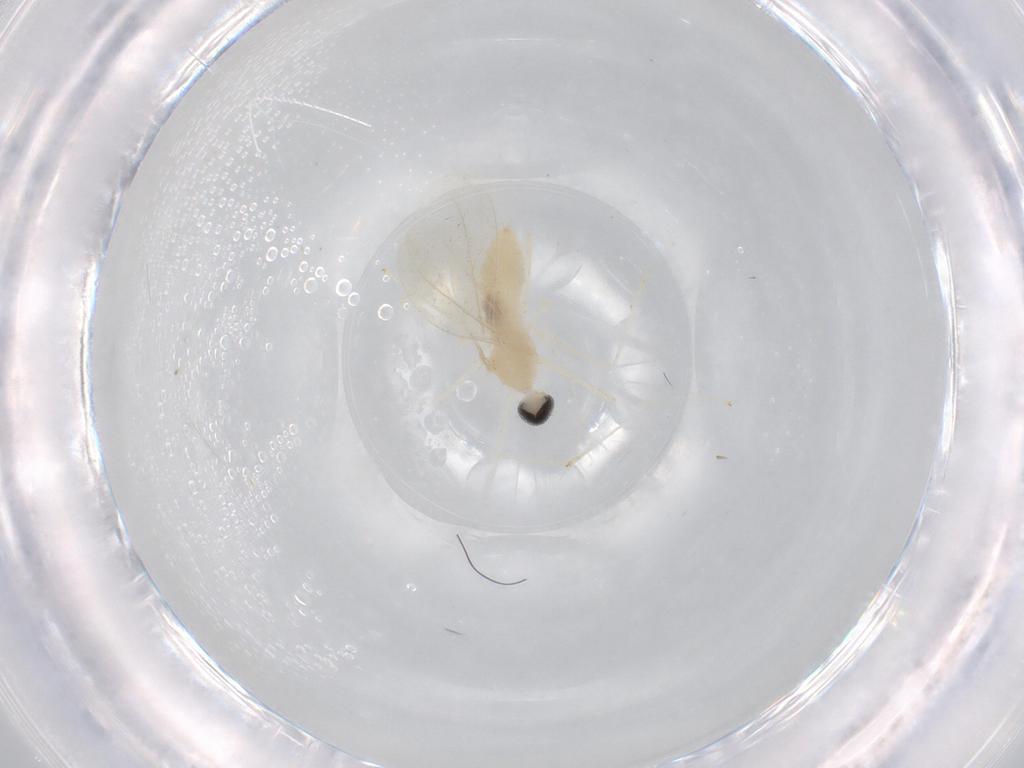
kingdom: Animalia
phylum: Arthropoda
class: Insecta
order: Diptera
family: Cecidomyiidae
